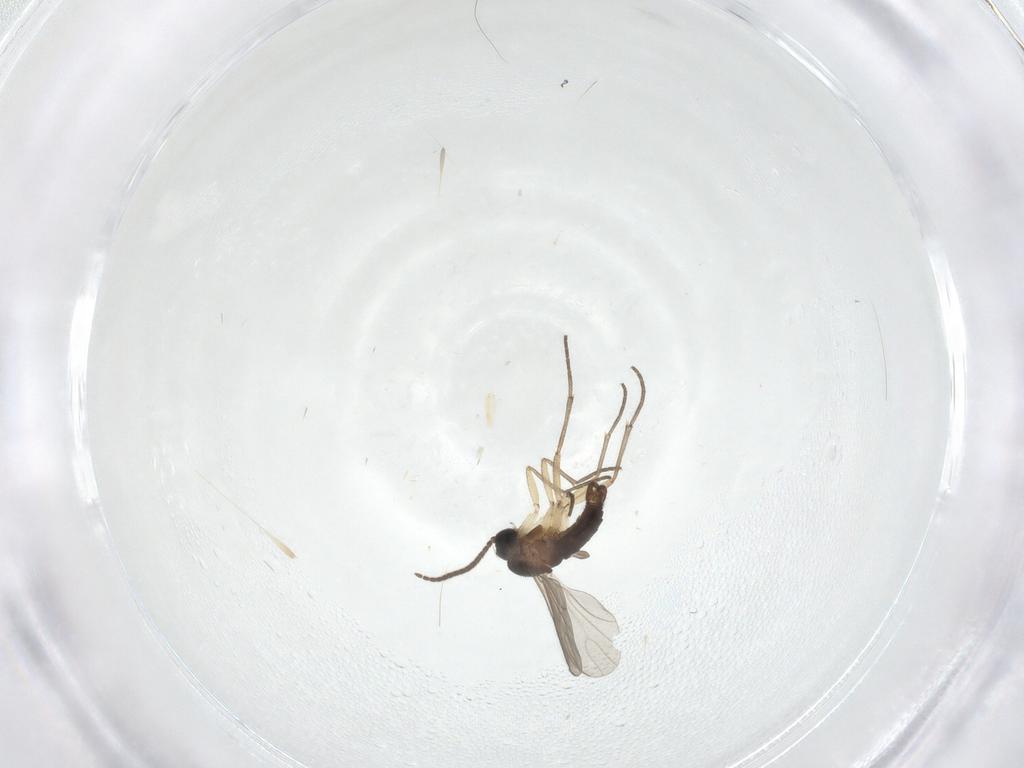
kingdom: Animalia
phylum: Arthropoda
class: Insecta
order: Diptera
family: Sciaridae
